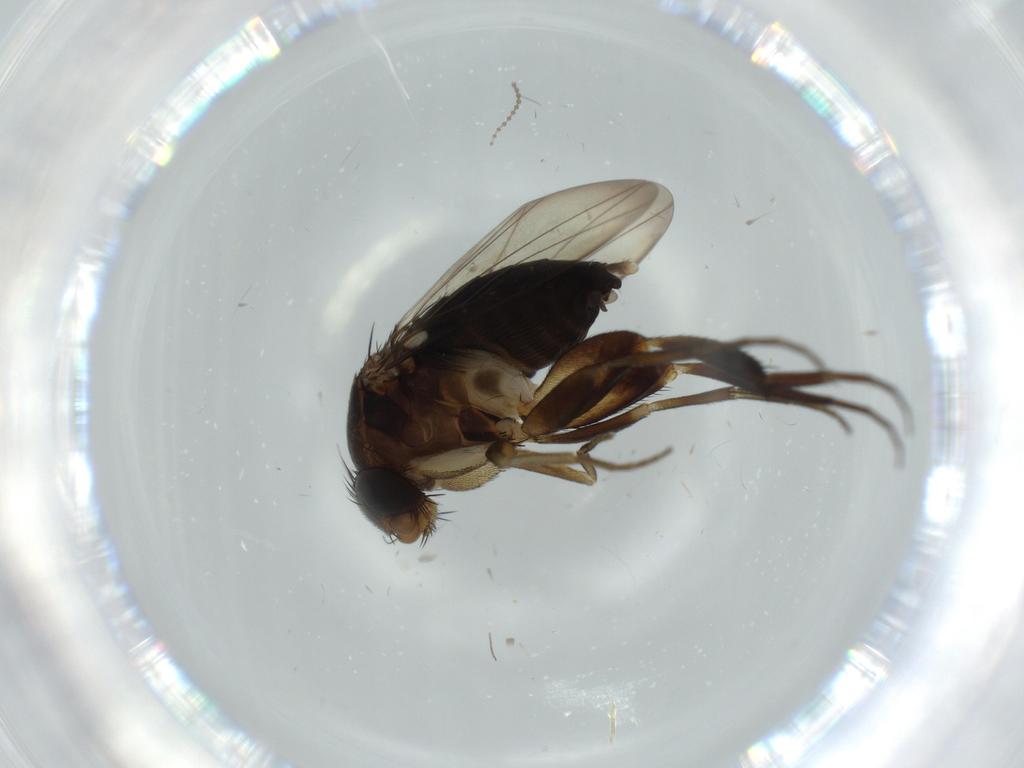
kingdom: Animalia
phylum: Arthropoda
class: Insecta
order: Diptera
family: Phoridae
